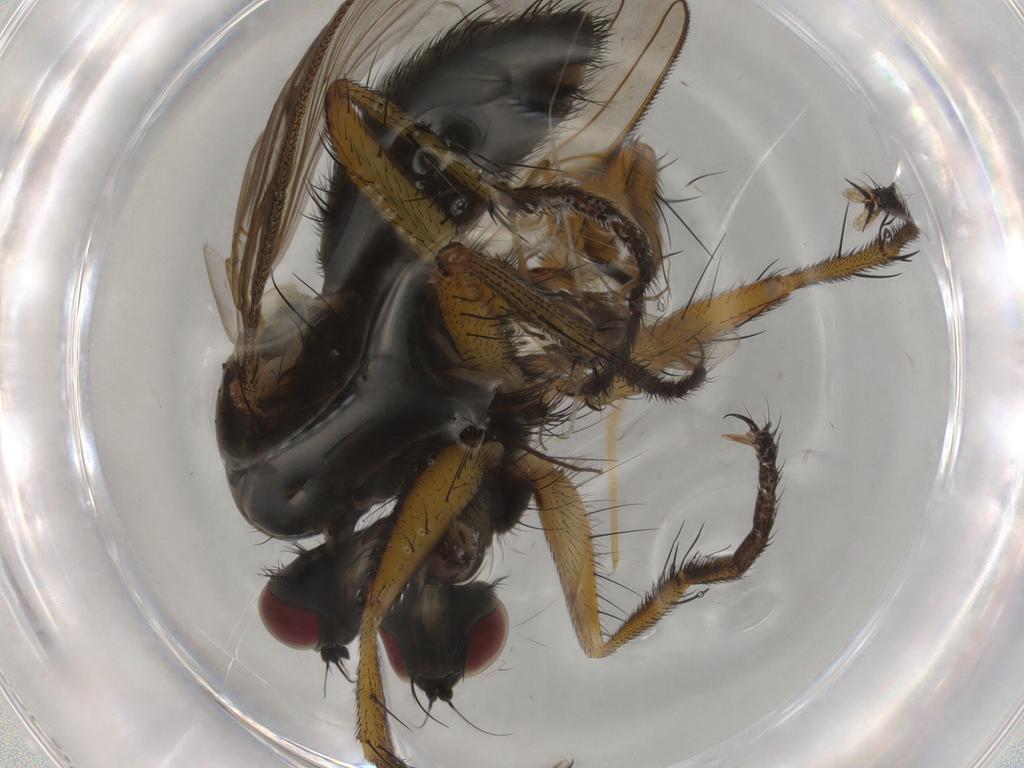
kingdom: Animalia
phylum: Arthropoda
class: Insecta
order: Diptera
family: Muscidae
